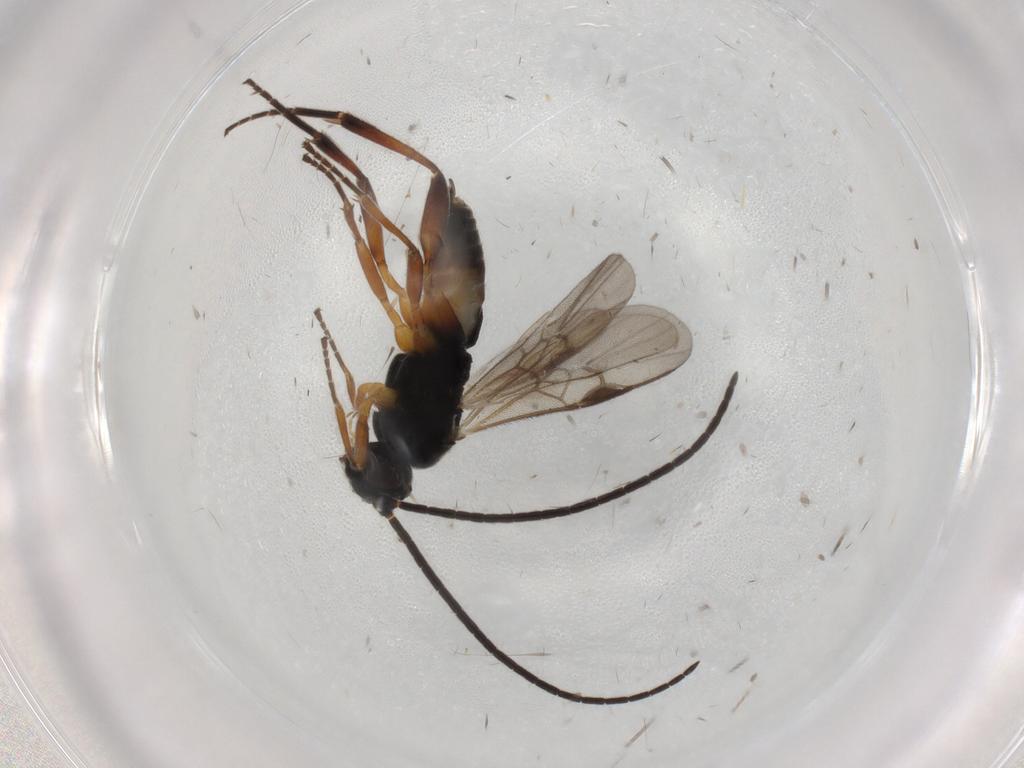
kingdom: Animalia
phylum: Arthropoda
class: Insecta
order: Hymenoptera
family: Braconidae
